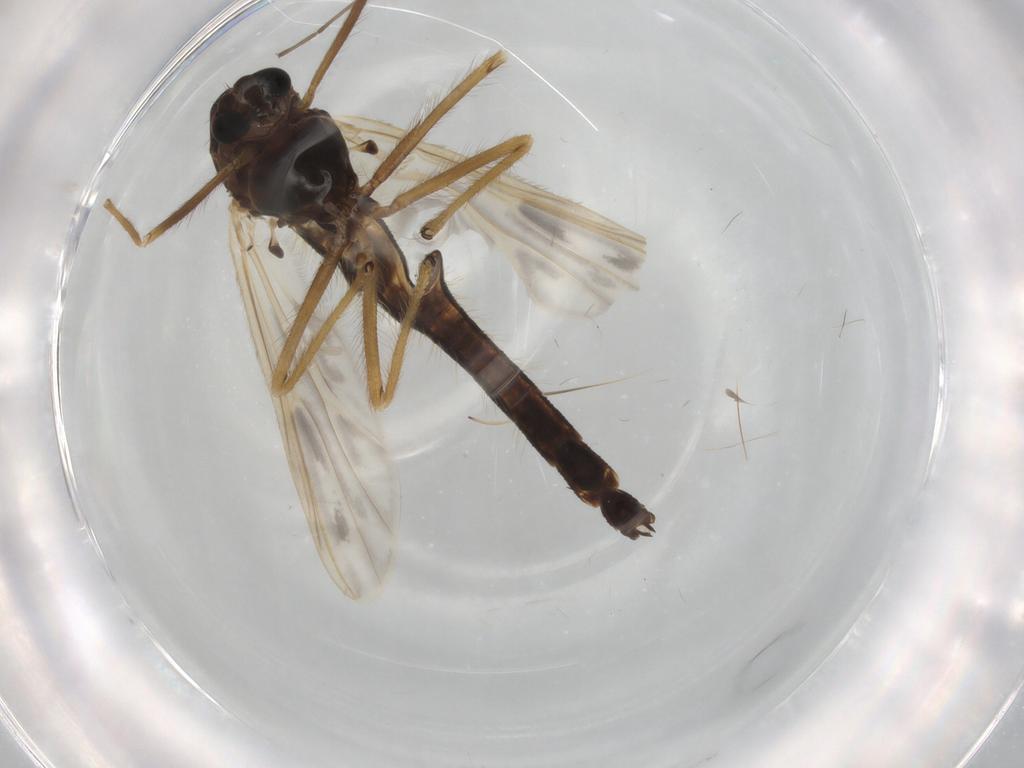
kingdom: Animalia
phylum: Arthropoda
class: Insecta
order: Diptera
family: Chironomidae
